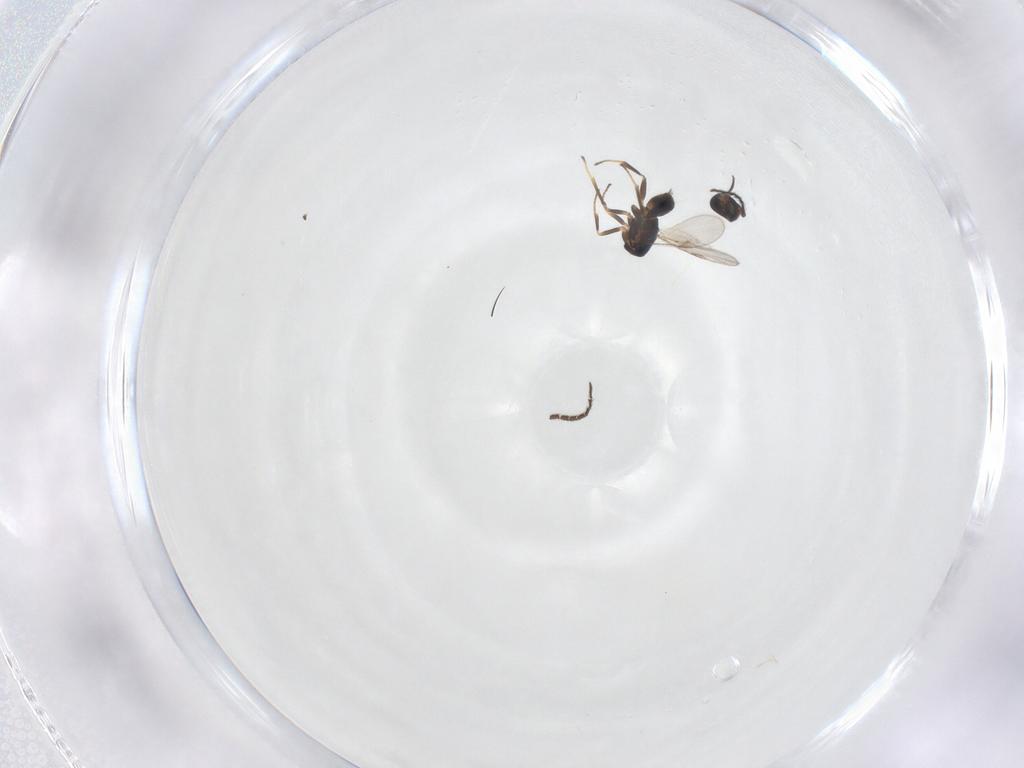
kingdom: Animalia
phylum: Arthropoda
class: Insecta
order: Hymenoptera
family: Encyrtidae
